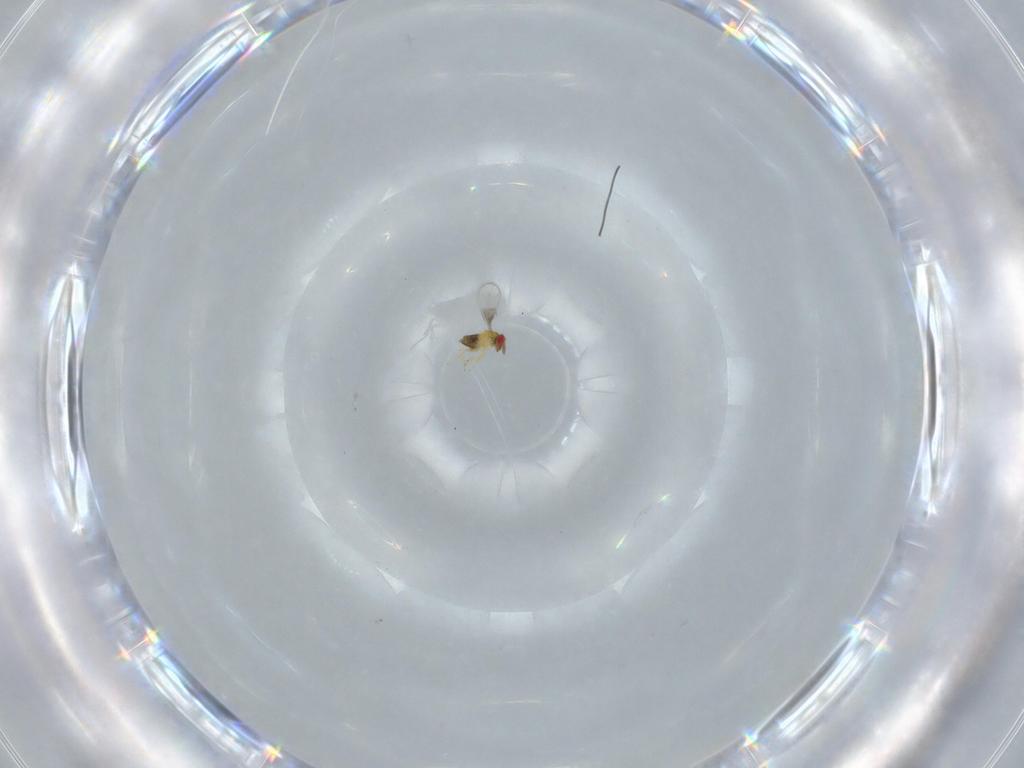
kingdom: Animalia
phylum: Arthropoda
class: Insecta
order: Hymenoptera
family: Trichogrammatidae
